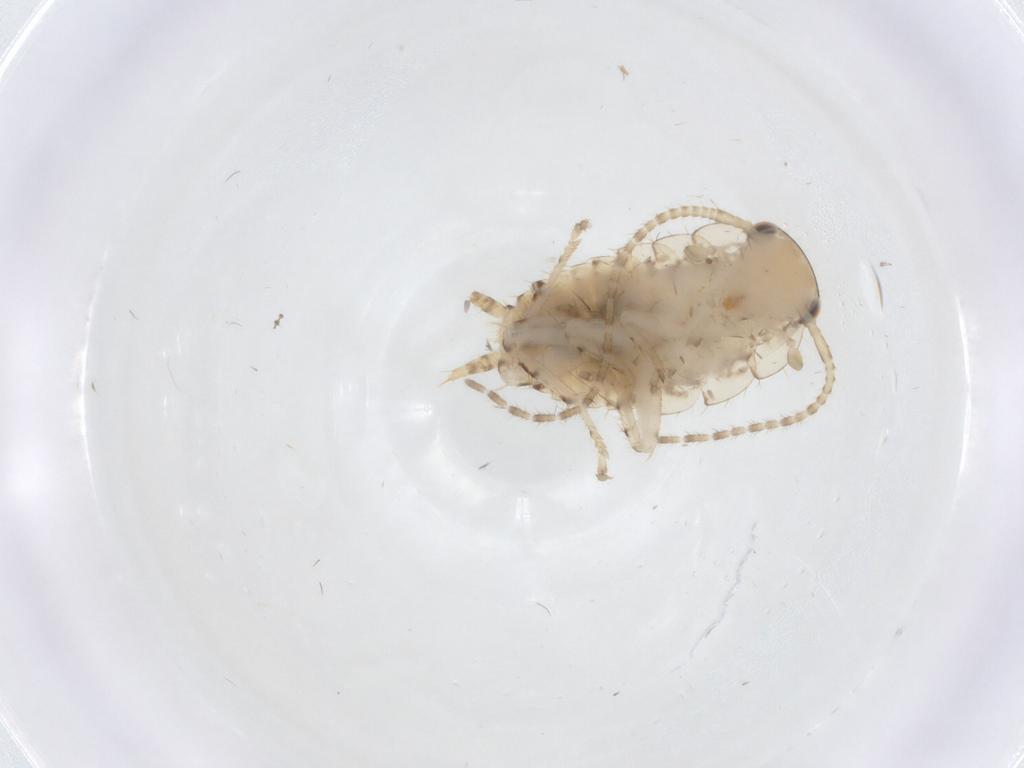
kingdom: Animalia
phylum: Arthropoda
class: Insecta
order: Blattodea
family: Ectobiidae
